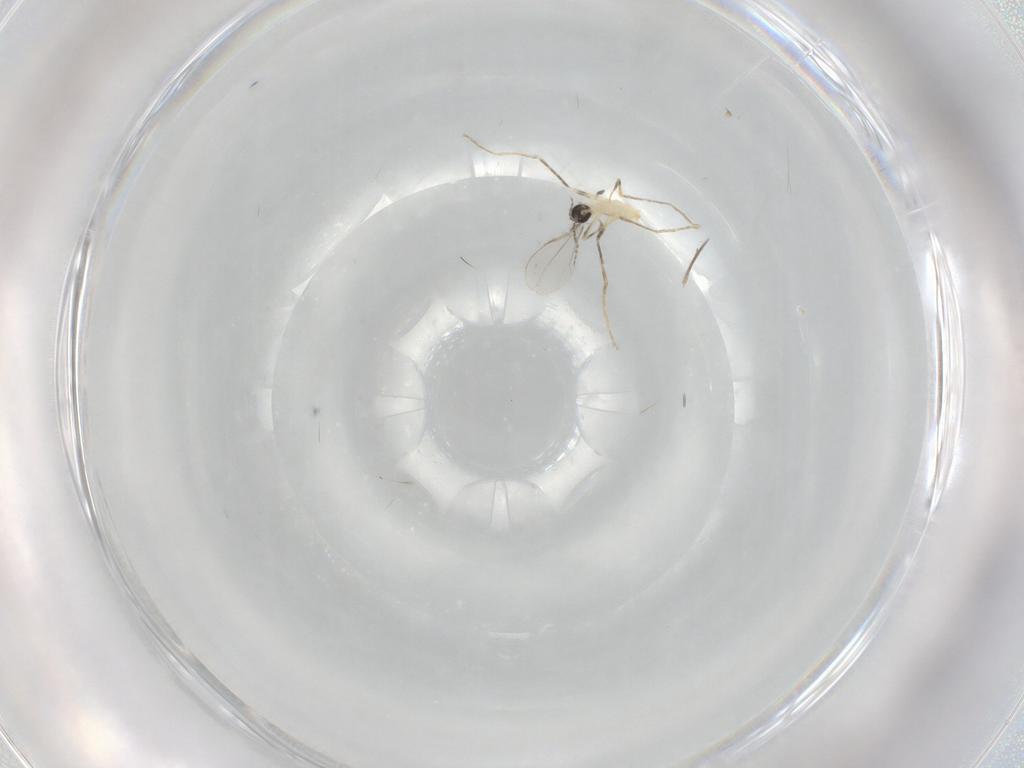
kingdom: Animalia
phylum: Arthropoda
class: Insecta
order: Diptera
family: Cecidomyiidae
